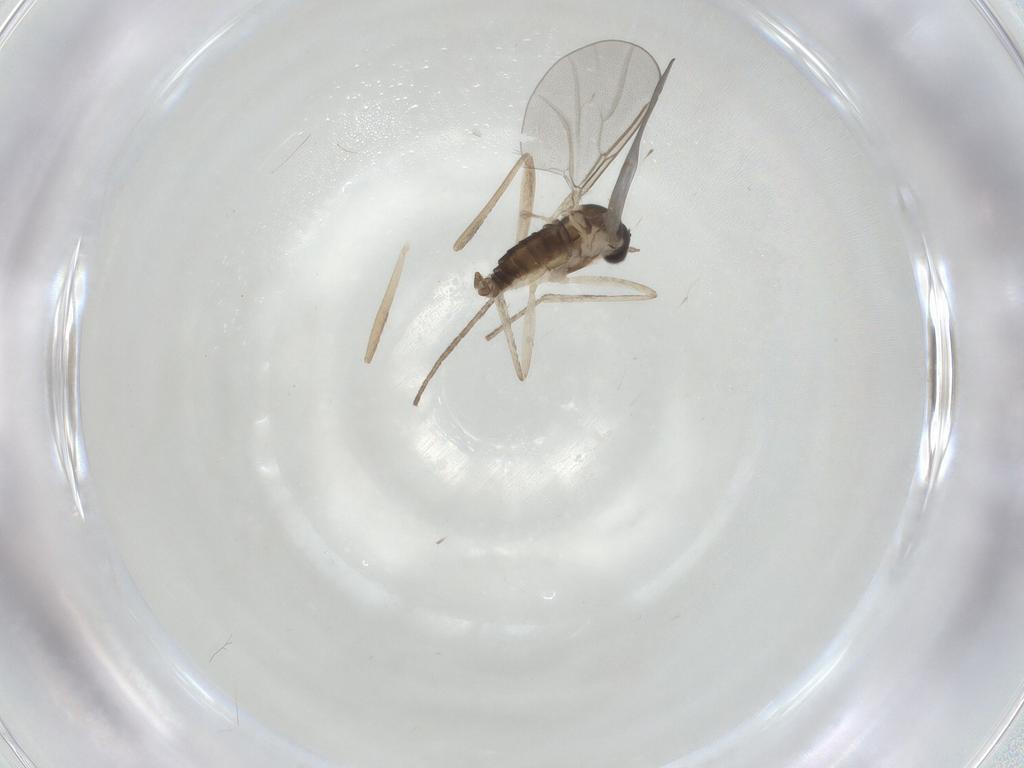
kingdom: Animalia
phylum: Arthropoda
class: Insecta
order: Diptera
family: Cecidomyiidae
